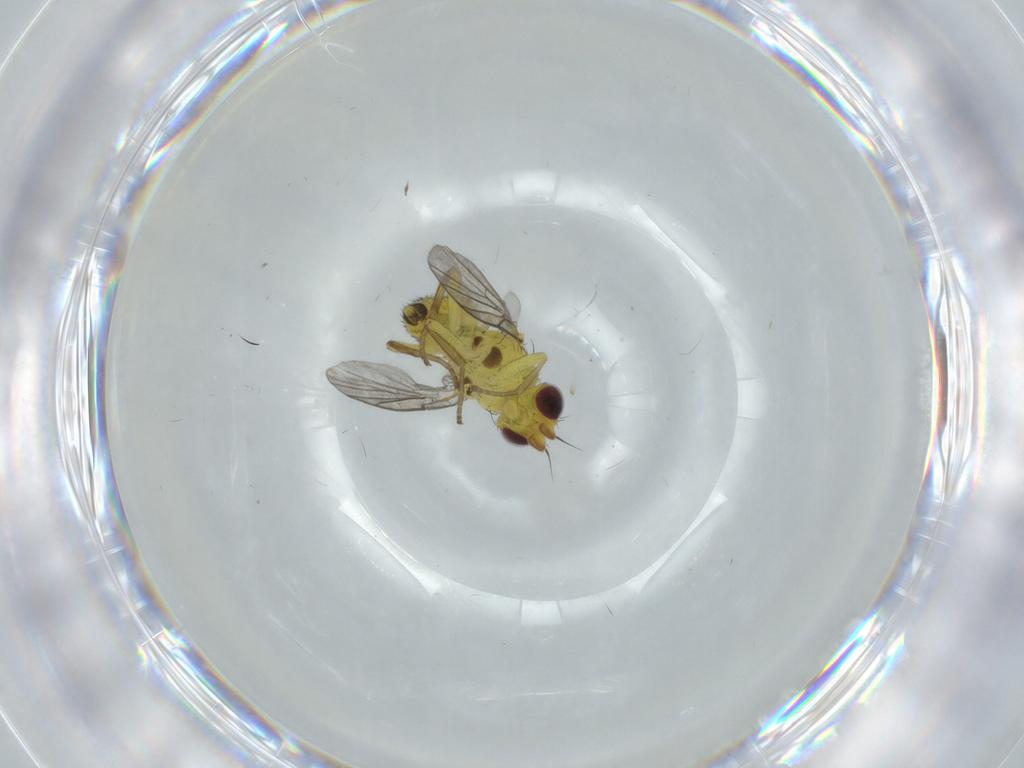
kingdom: Animalia
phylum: Arthropoda
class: Insecta
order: Diptera
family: Agromyzidae
